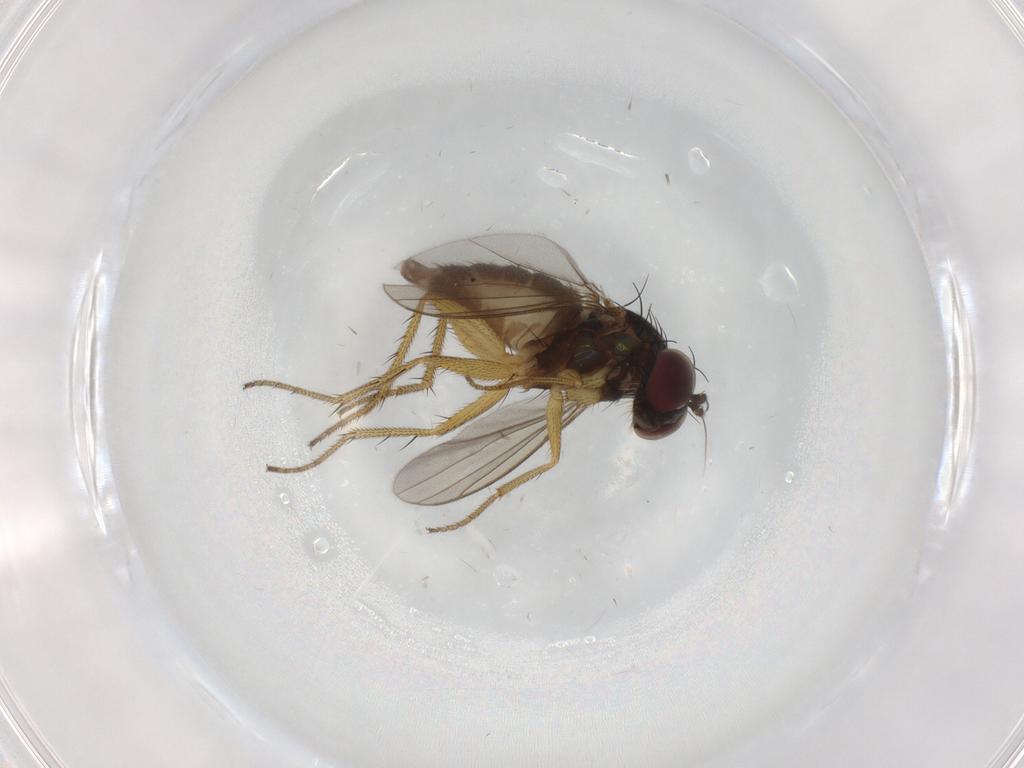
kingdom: Animalia
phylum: Arthropoda
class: Insecta
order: Diptera
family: Dolichopodidae
